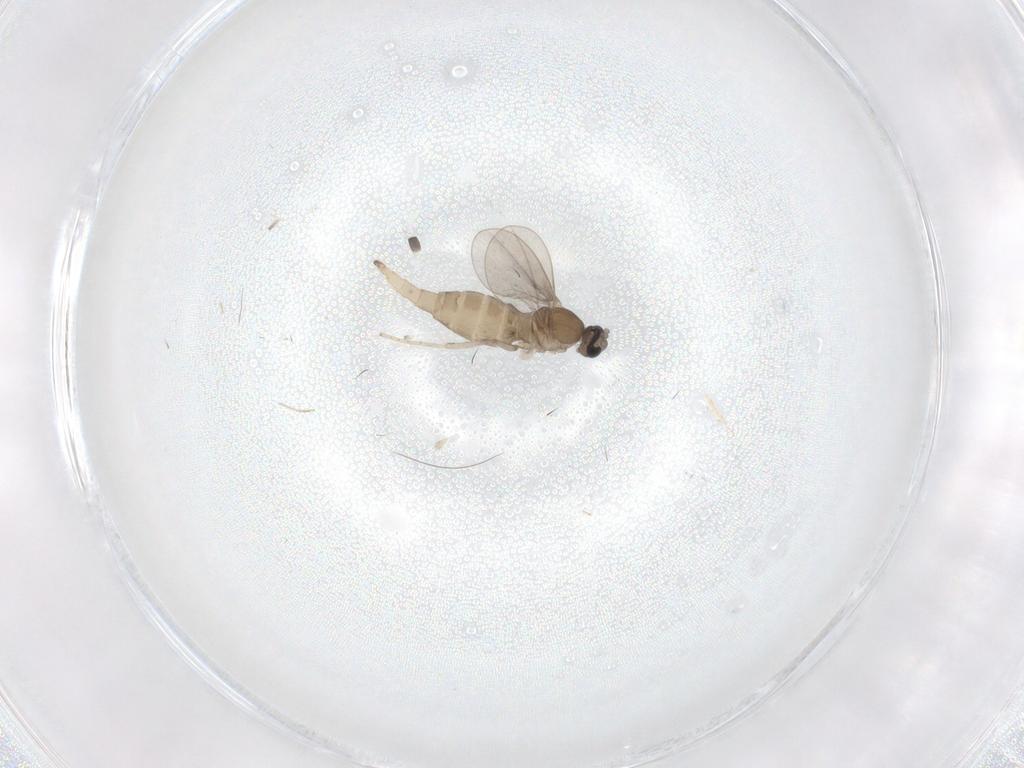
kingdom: Animalia
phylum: Arthropoda
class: Insecta
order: Diptera
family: Cecidomyiidae
